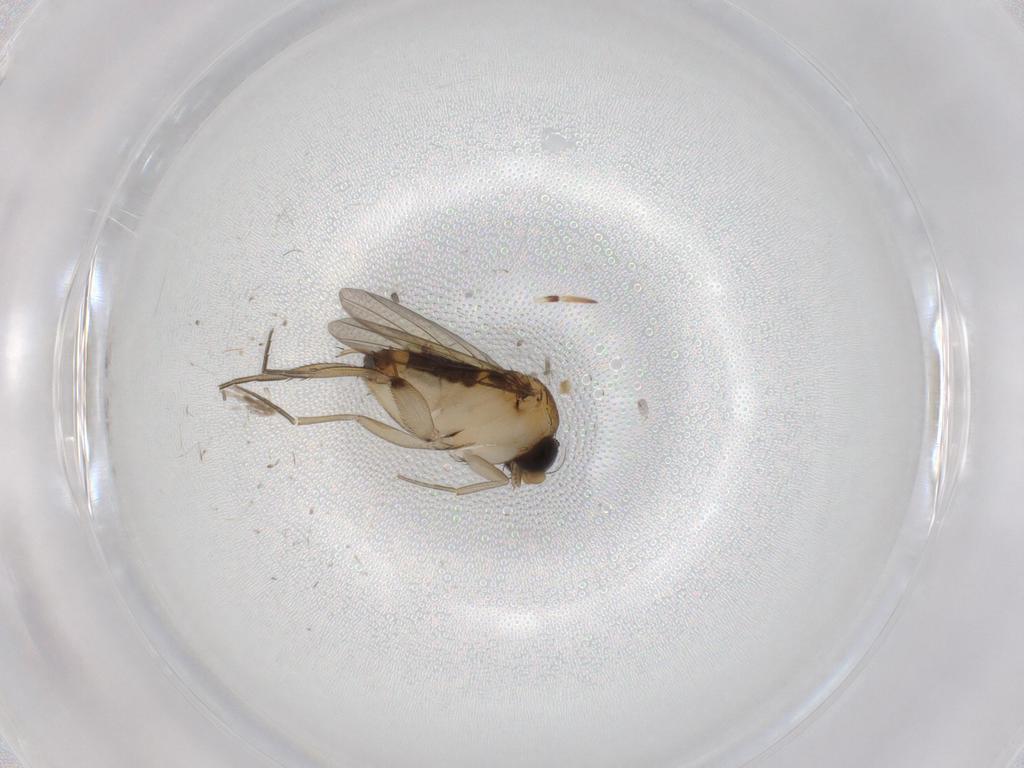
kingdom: Animalia
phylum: Arthropoda
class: Insecta
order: Diptera
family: Phoridae
